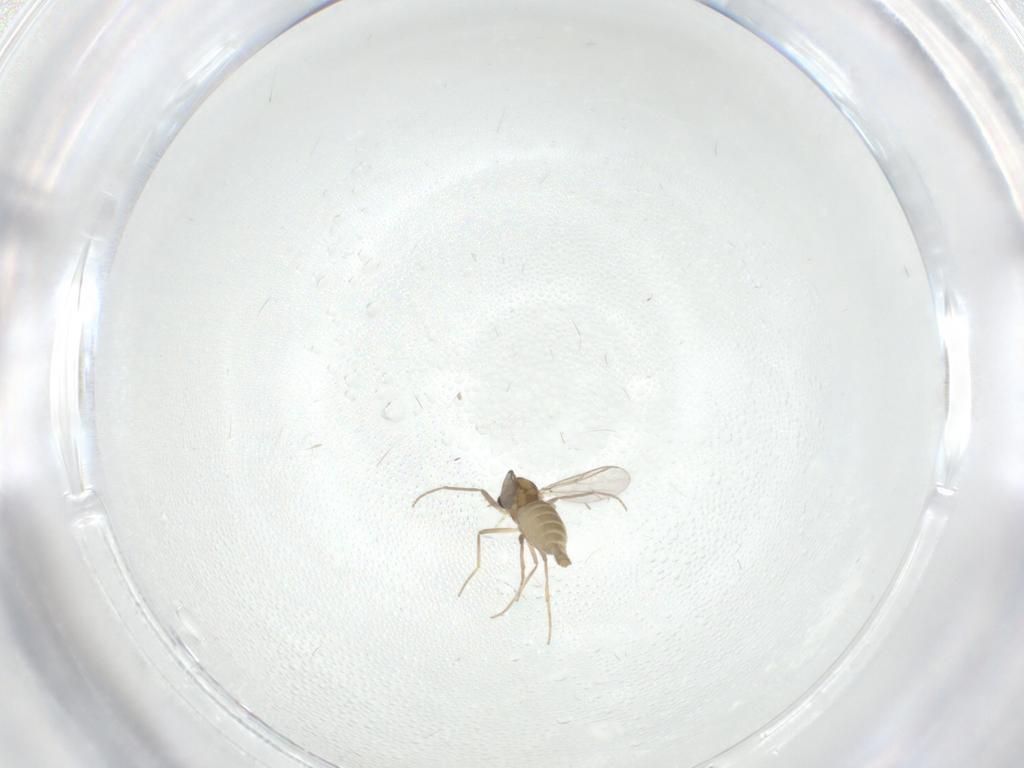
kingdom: Animalia
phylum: Arthropoda
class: Insecta
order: Diptera
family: Chironomidae
